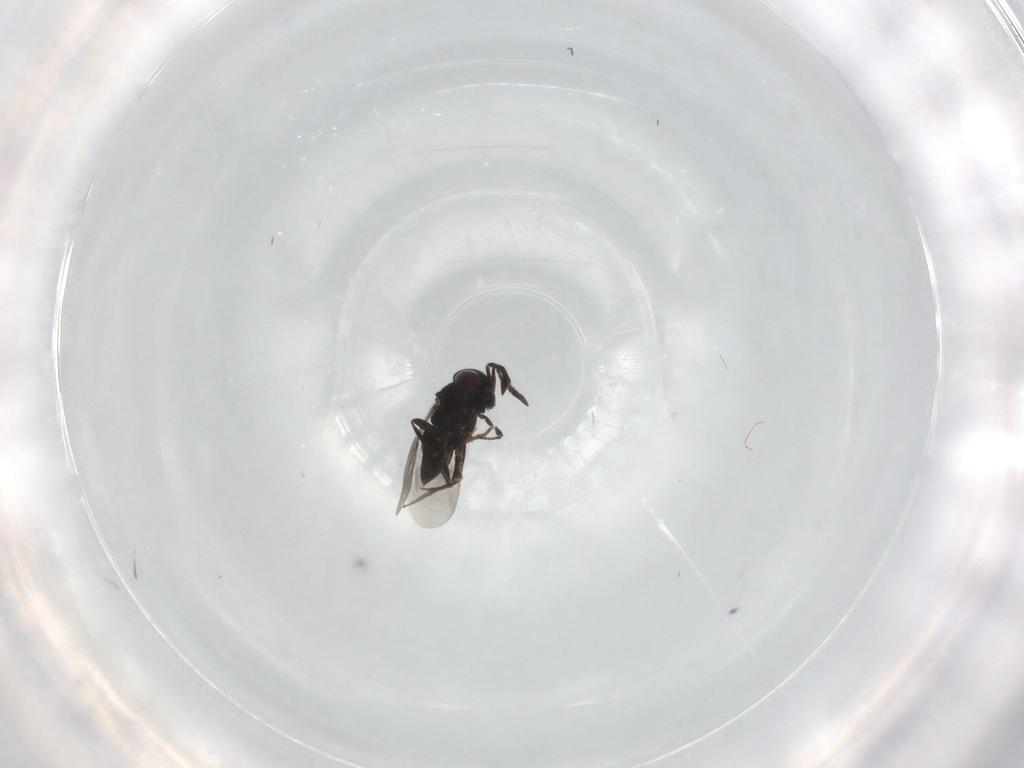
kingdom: Animalia
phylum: Arthropoda
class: Insecta
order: Hymenoptera
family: Encyrtidae
